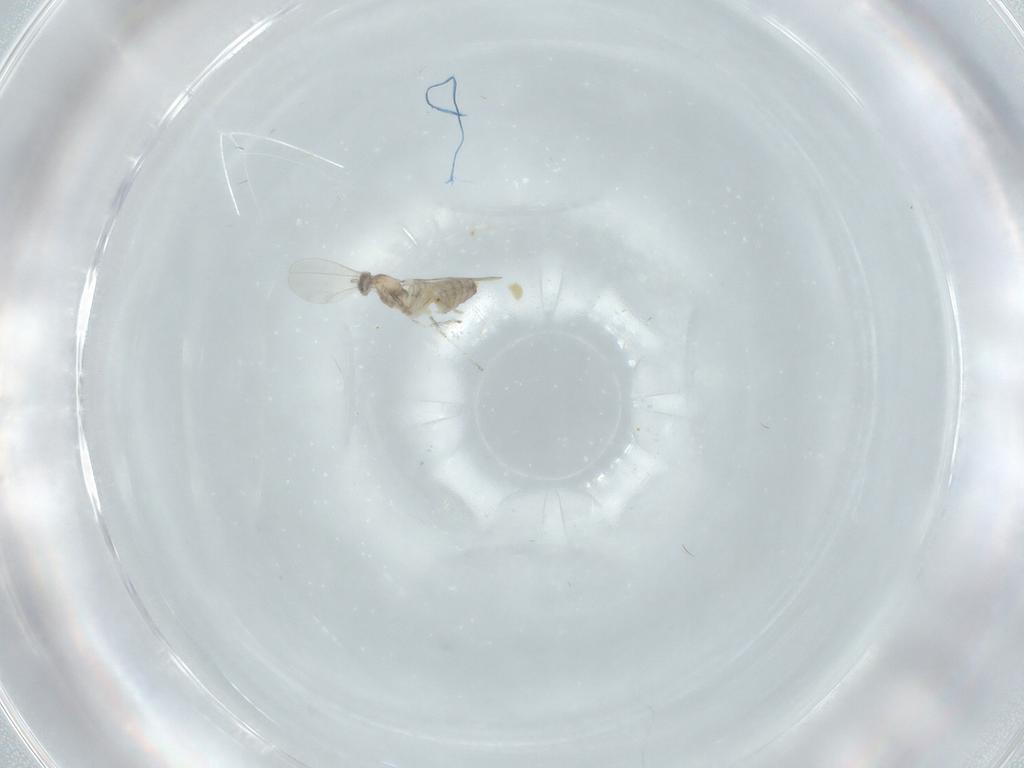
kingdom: Animalia
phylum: Arthropoda
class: Insecta
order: Diptera
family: Cecidomyiidae
